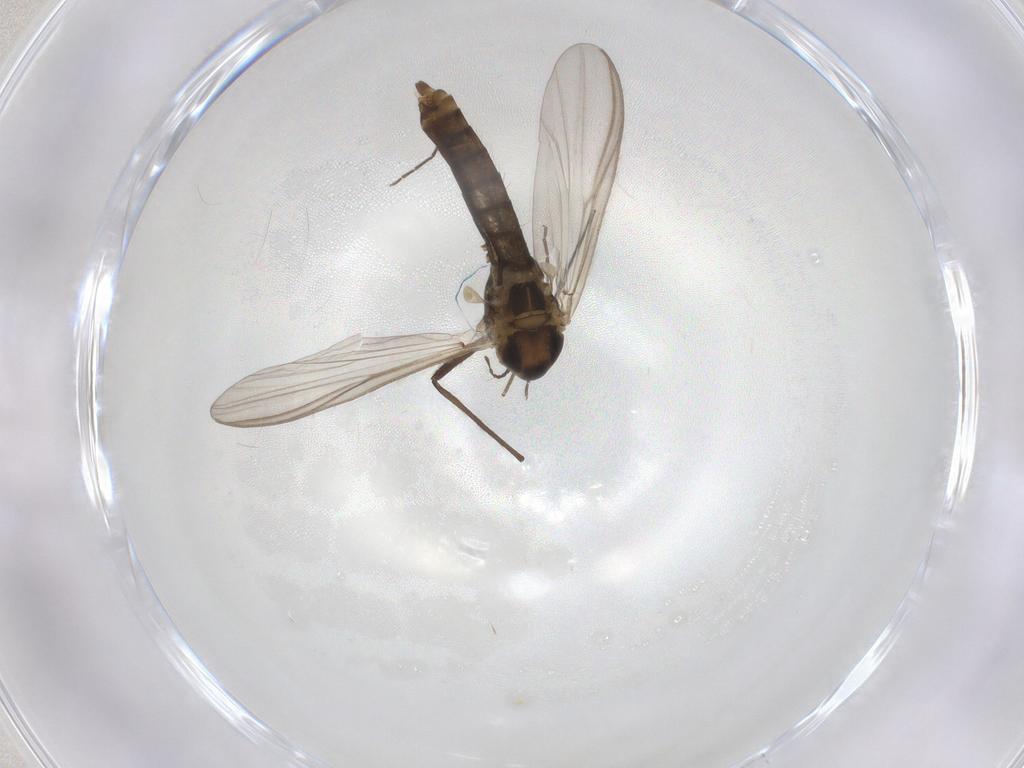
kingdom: Animalia
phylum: Arthropoda
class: Insecta
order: Diptera
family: Chironomidae
